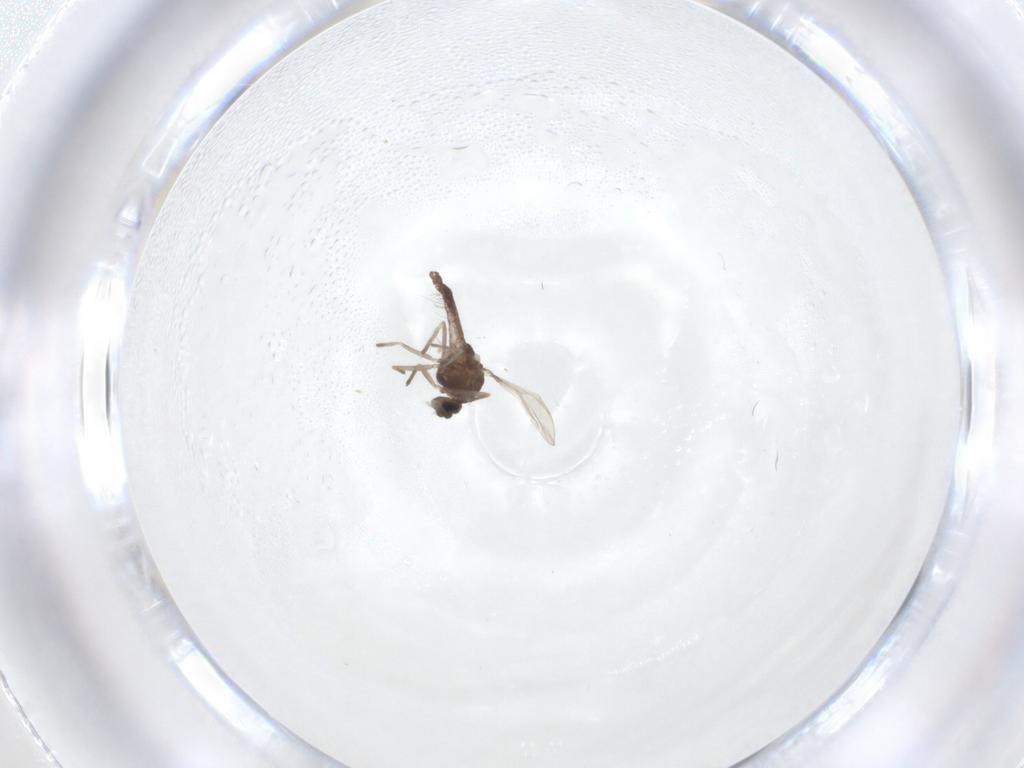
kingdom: Animalia
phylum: Arthropoda
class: Insecta
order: Diptera
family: Chironomidae
